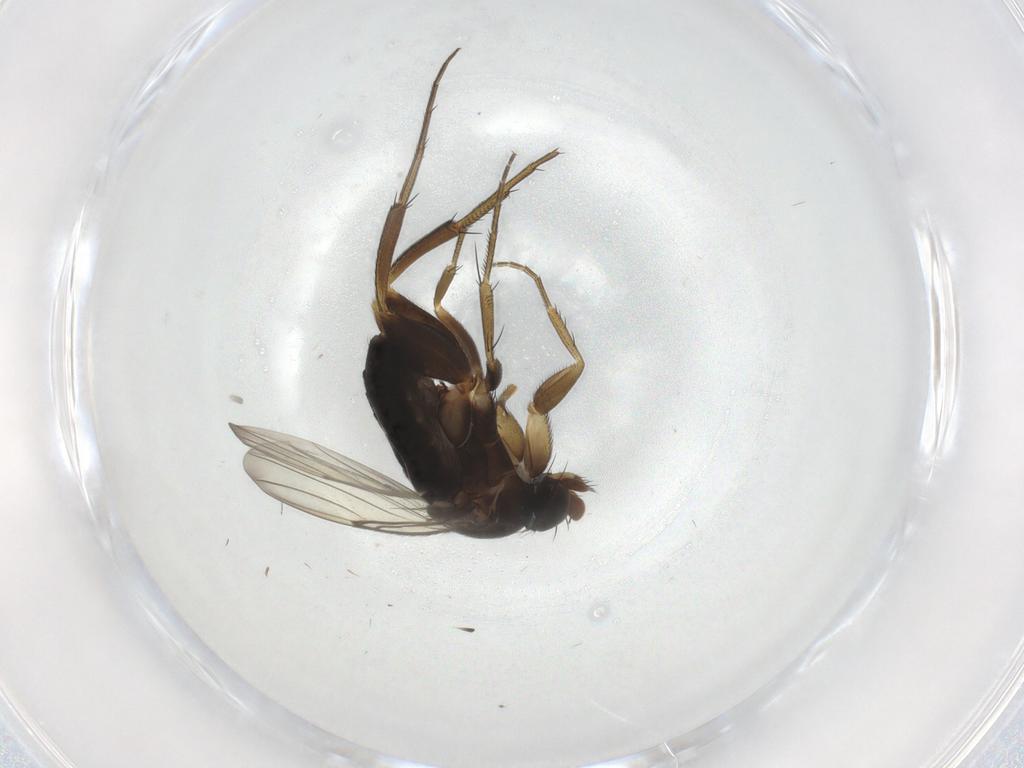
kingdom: Animalia
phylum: Arthropoda
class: Insecta
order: Diptera
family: Phoridae
